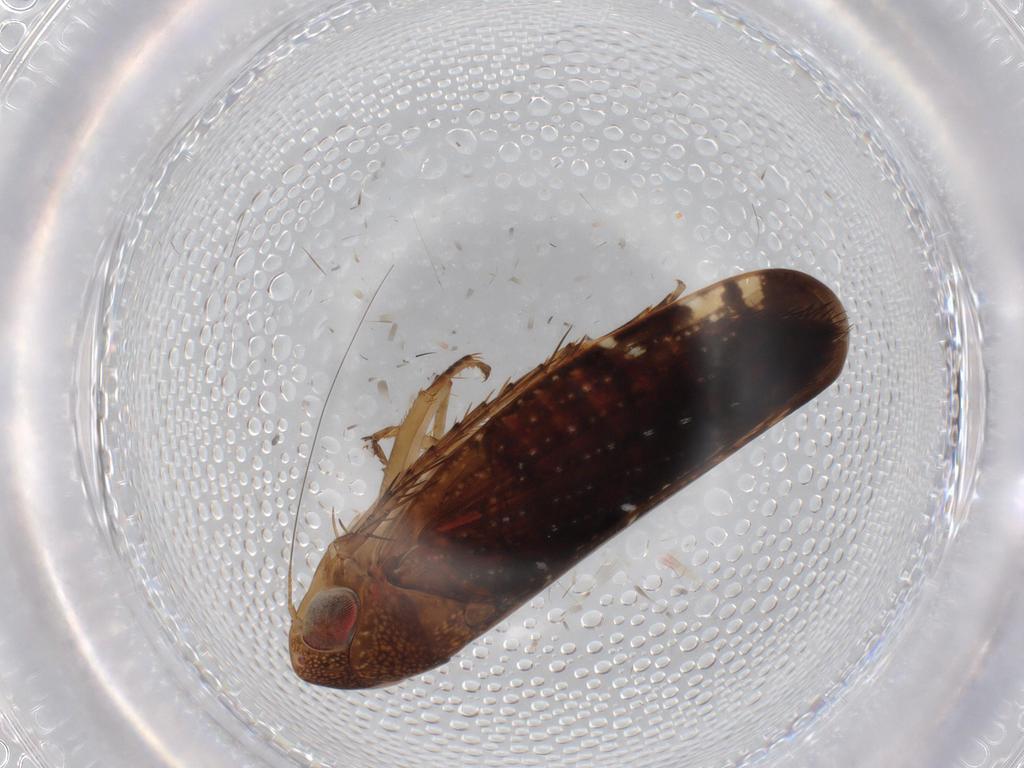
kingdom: Animalia
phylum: Arthropoda
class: Insecta
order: Hemiptera
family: Cicadellidae
